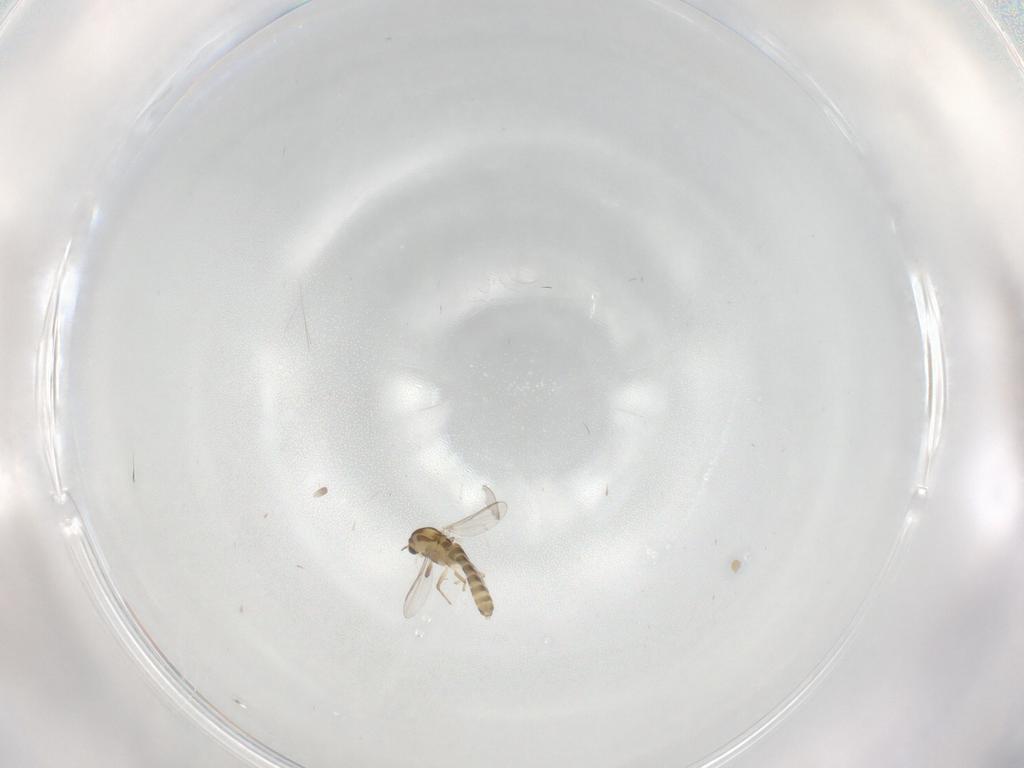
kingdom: Animalia
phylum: Arthropoda
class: Insecta
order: Diptera
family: Chironomidae
